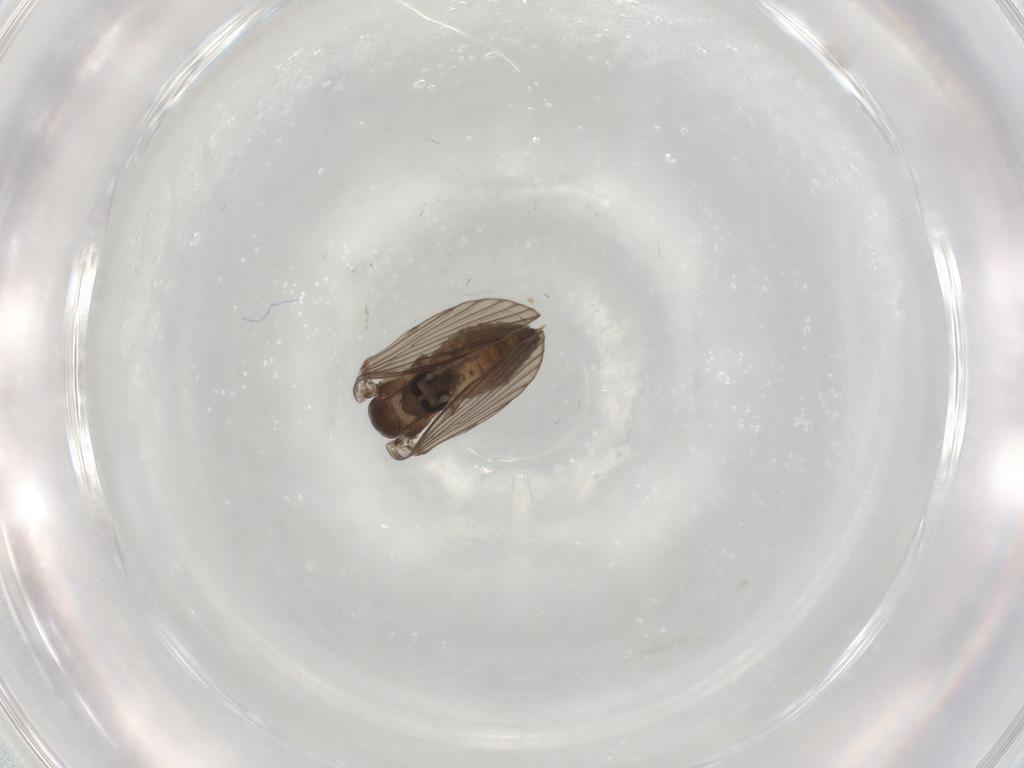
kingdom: Animalia
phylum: Arthropoda
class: Insecta
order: Diptera
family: Psychodidae
